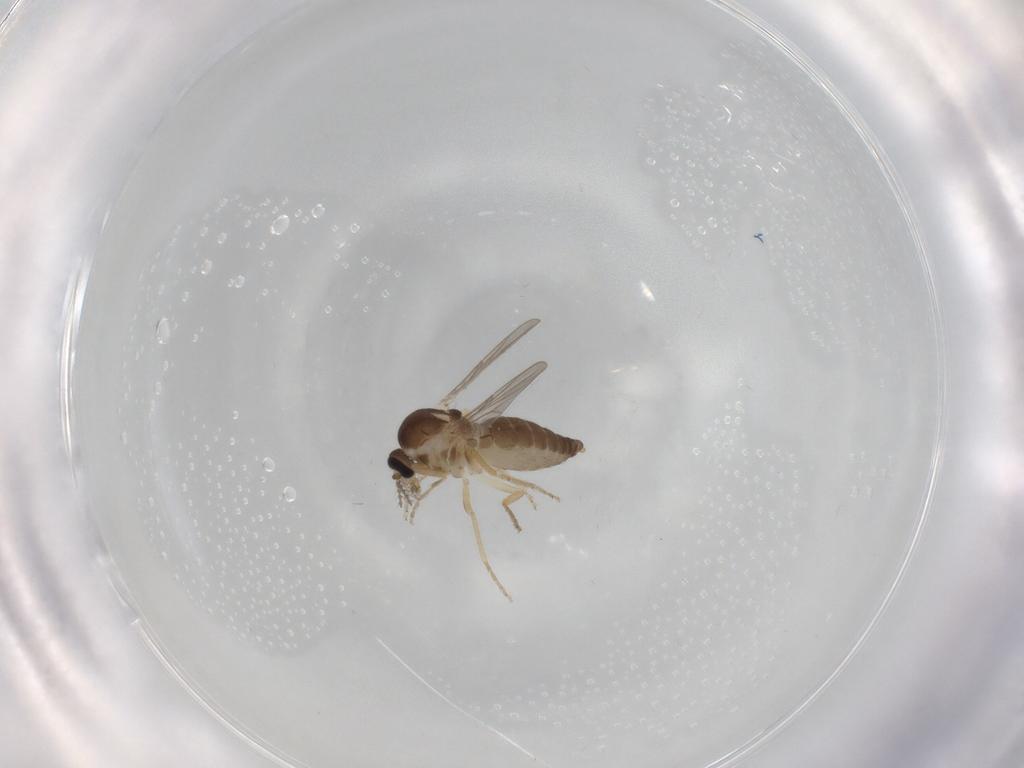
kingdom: Animalia
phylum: Arthropoda
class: Insecta
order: Diptera
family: Ceratopogonidae
